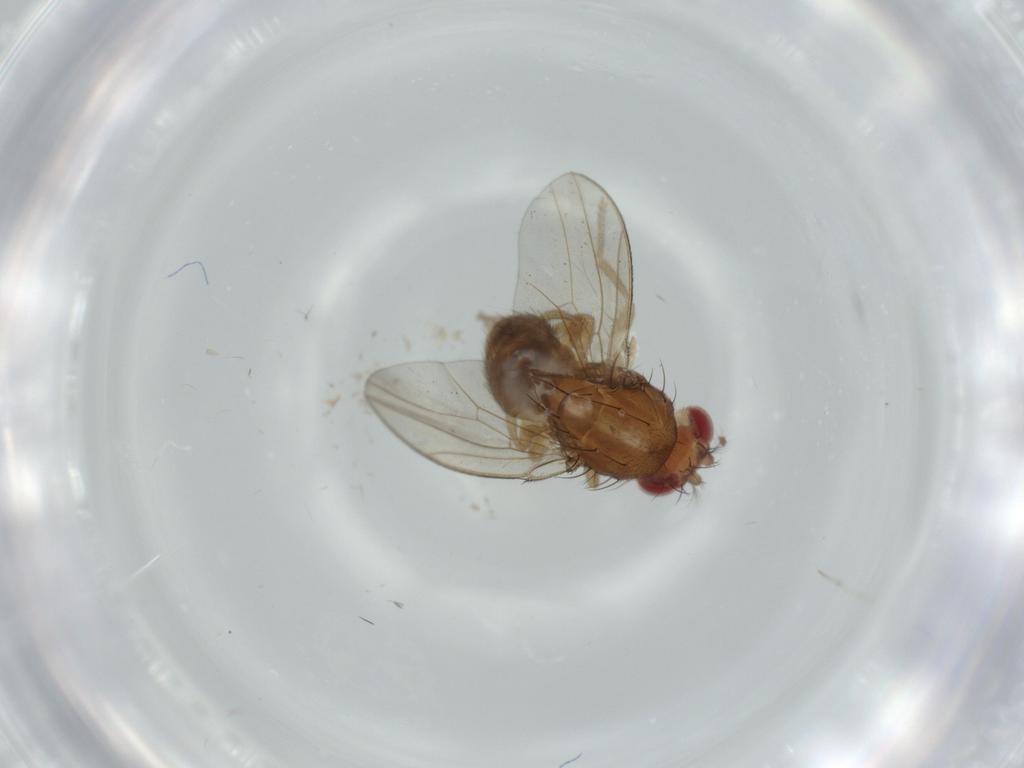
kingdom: Animalia
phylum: Arthropoda
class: Insecta
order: Diptera
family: Drosophilidae
